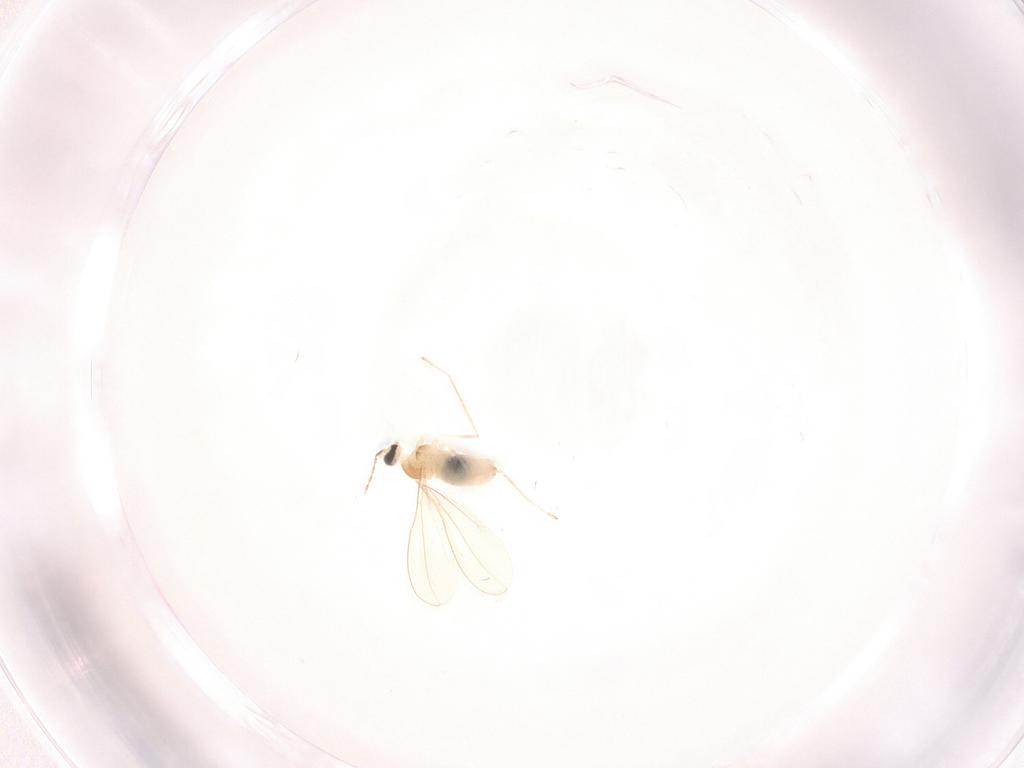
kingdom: Animalia
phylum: Arthropoda
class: Insecta
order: Diptera
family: Cecidomyiidae
